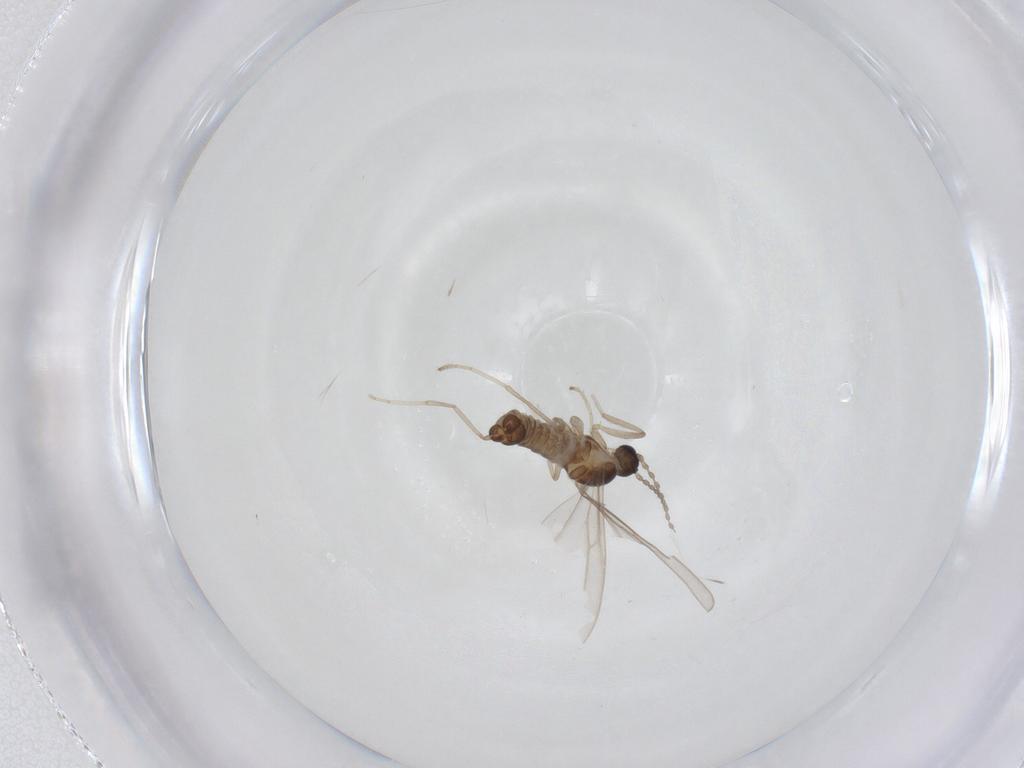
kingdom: Animalia
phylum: Arthropoda
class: Insecta
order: Diptera
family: Cecidomyiidae
